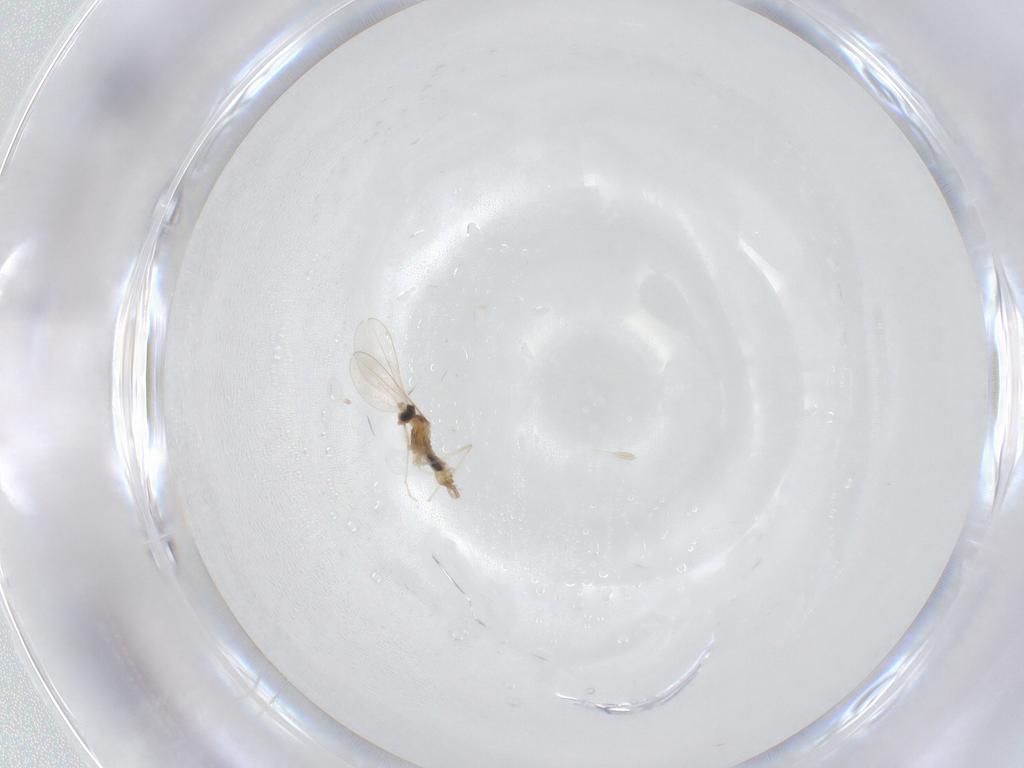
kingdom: Animalia
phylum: Arthropoda
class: Insecta
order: Diptera
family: Cecidomyiidae
